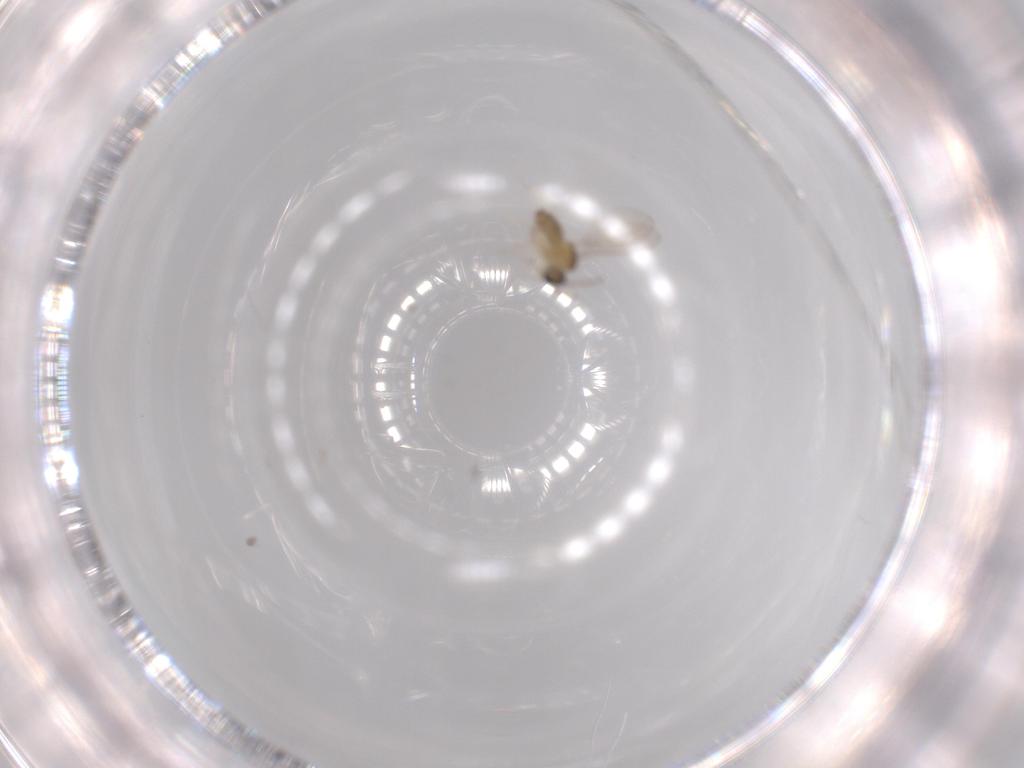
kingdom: Animalia
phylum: Arthropoda
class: Insecta
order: Diptera
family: Cecidomyiidae
